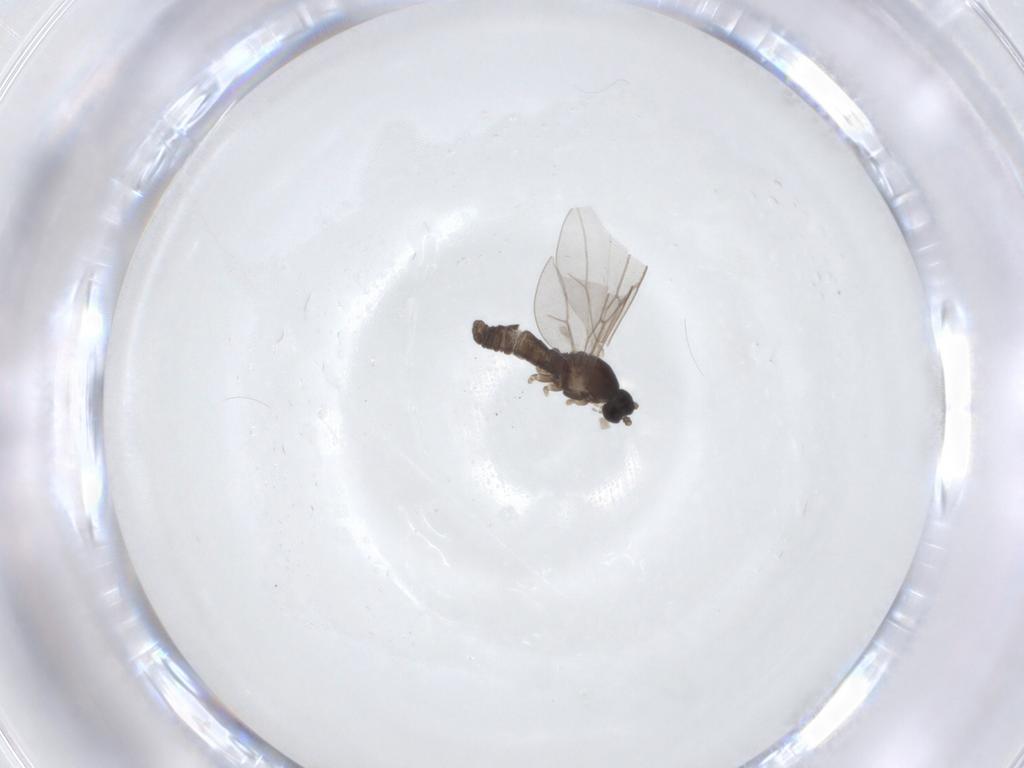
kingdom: Animalia
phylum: Arthropoda
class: Insecta
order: Diptera
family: Cecidomyiidae
